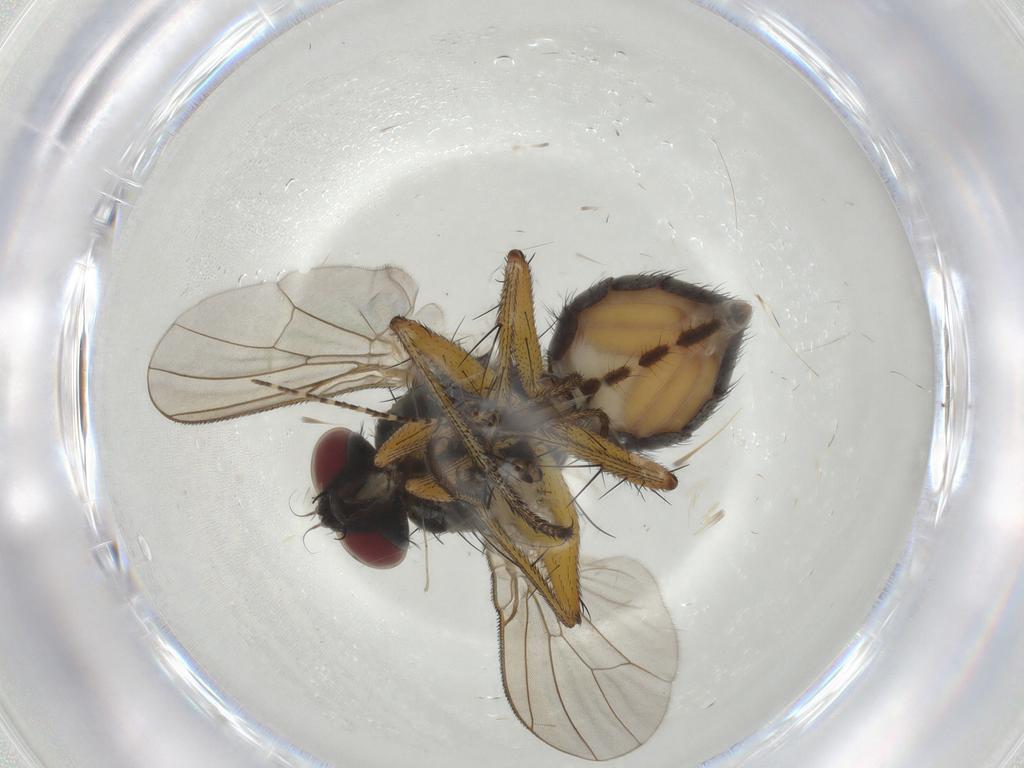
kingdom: Animalia
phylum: Arthropoda
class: Insecta
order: Diptera
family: Muscidae
